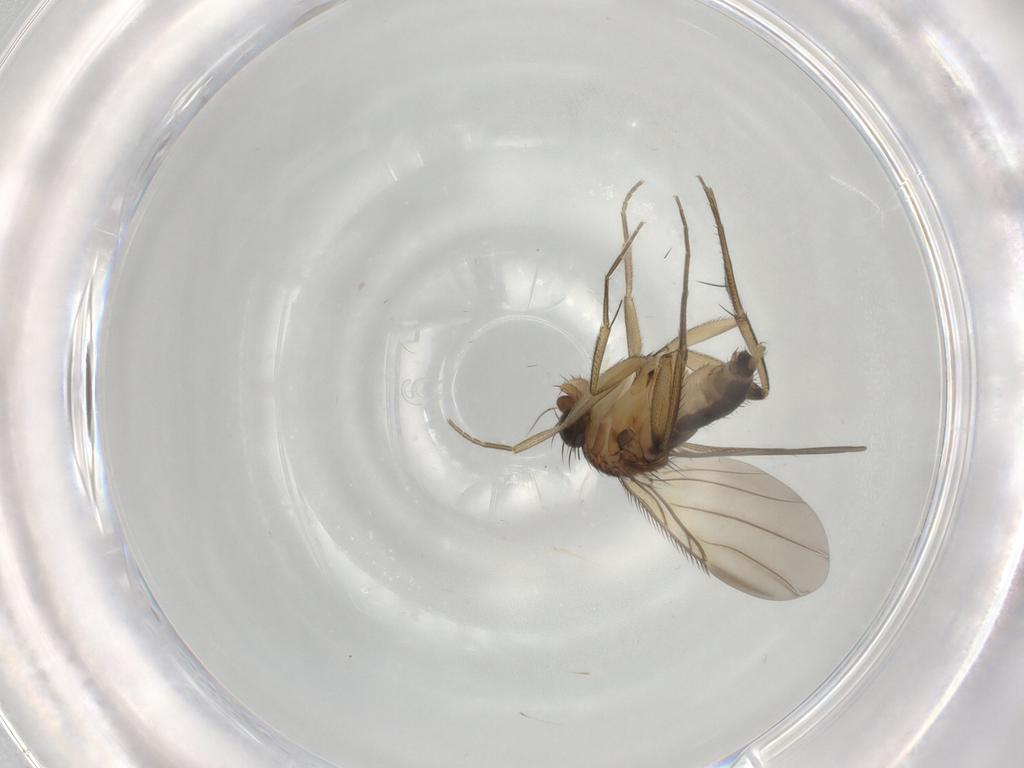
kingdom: Animalia
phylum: Arthropoda
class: Insecta
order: Diptera
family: Phoridae
